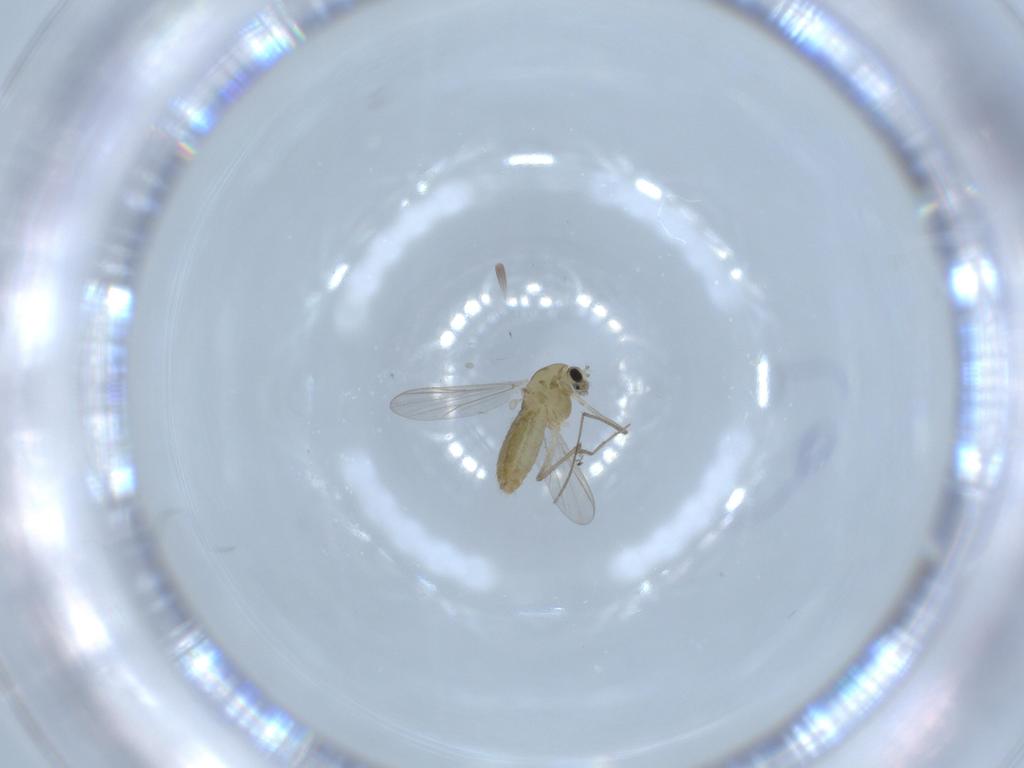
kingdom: Animalia
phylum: Arthropoda
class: Insecta
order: Diptera
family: Chironomidae
